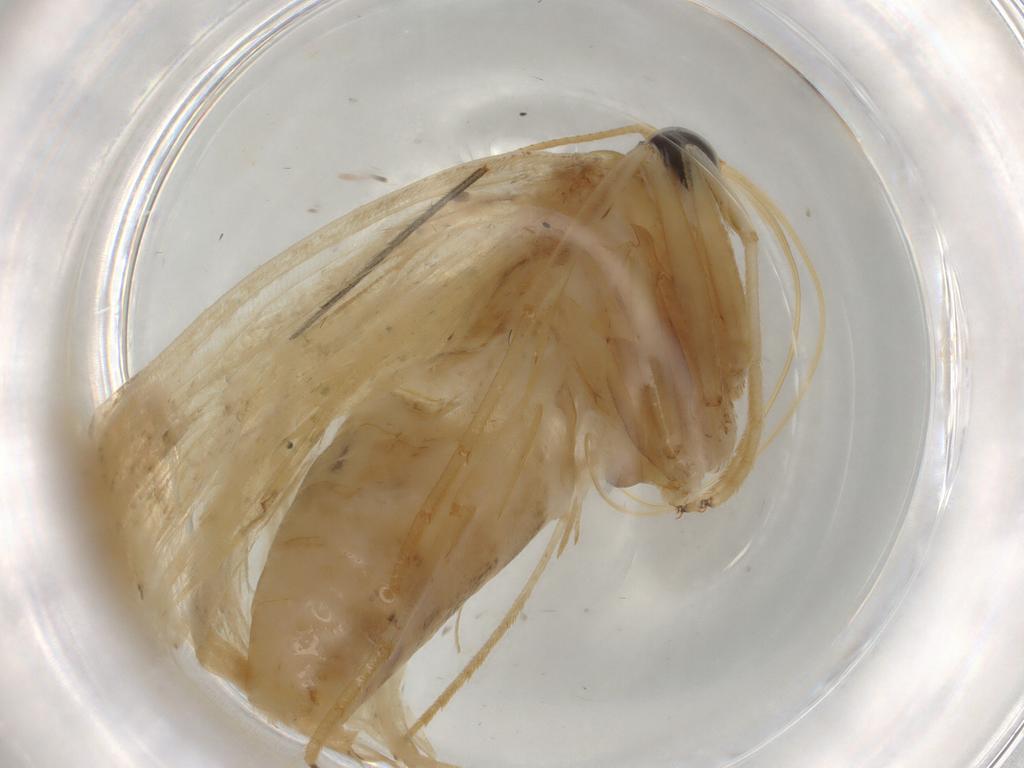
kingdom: Animalia
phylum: Arthropoda
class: Insecta
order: Lepidoptera
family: Crambidae
